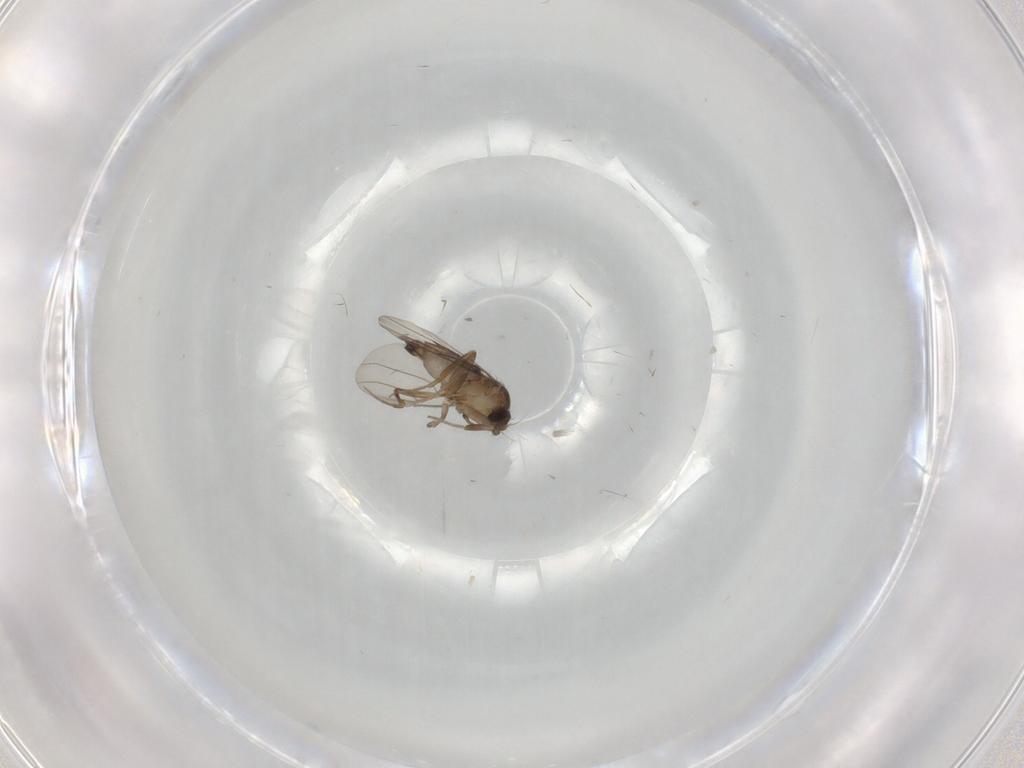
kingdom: Animalia
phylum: Arthropoda
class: Insecta
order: Diptera
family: Phoridae
